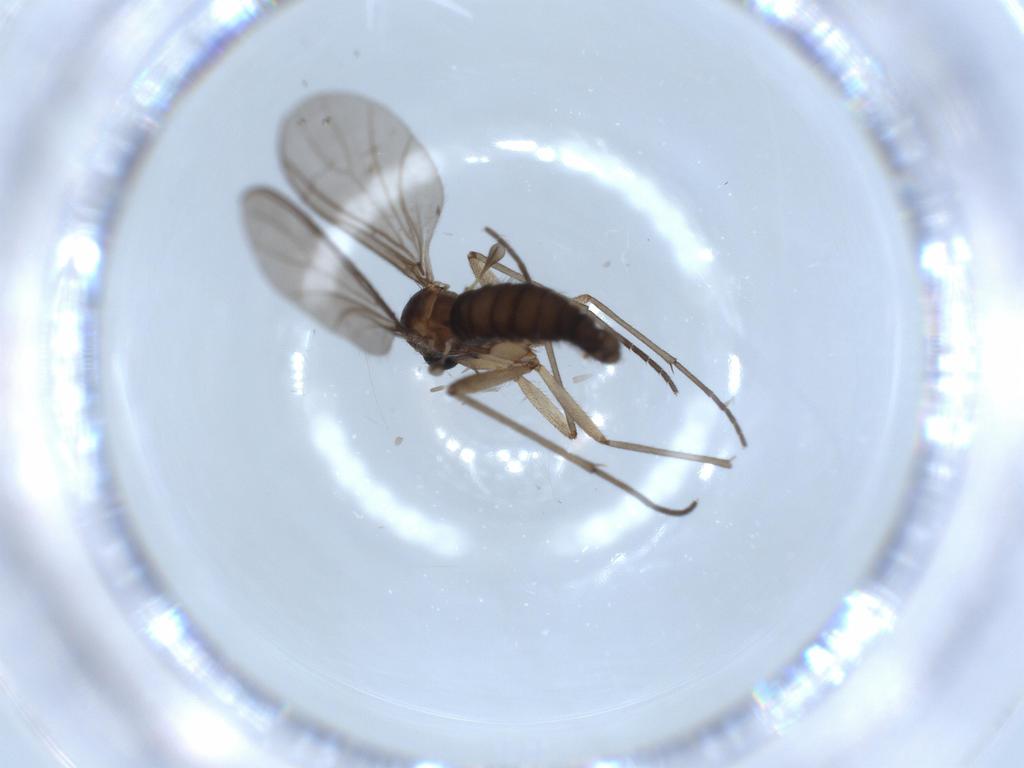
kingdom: Animalia
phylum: Arthropoda
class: Insecta
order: Diptera
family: Sciaridae
